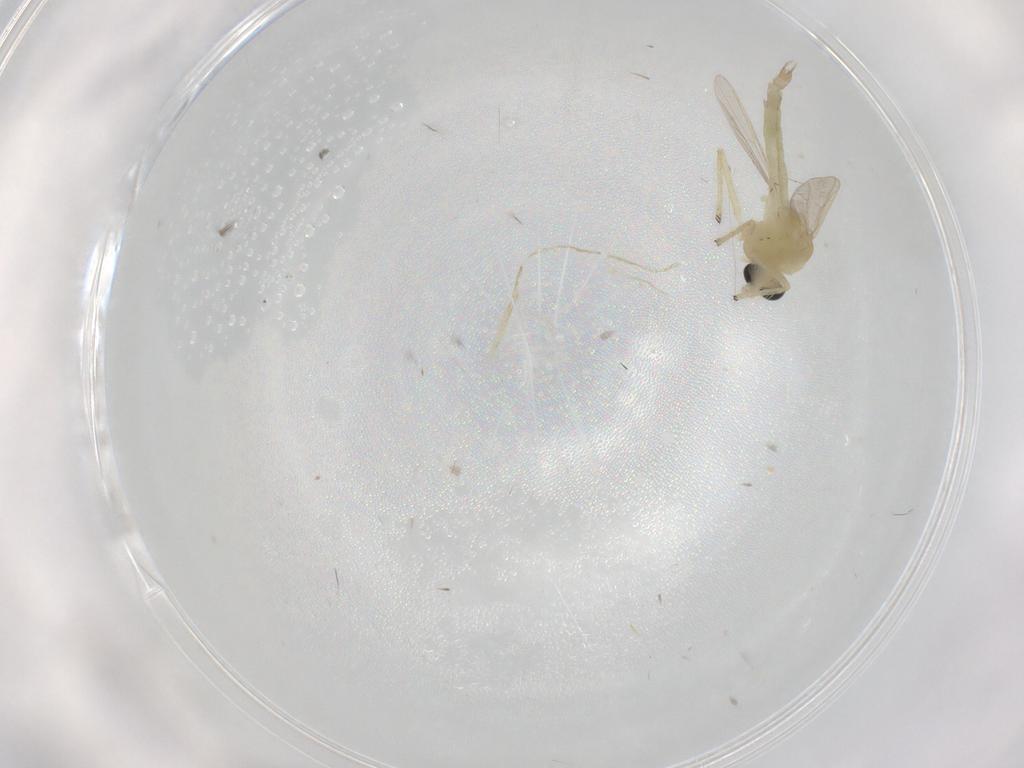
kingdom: Animalia
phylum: Arthropoda
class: Insecta
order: Diptera
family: Chironomidae
